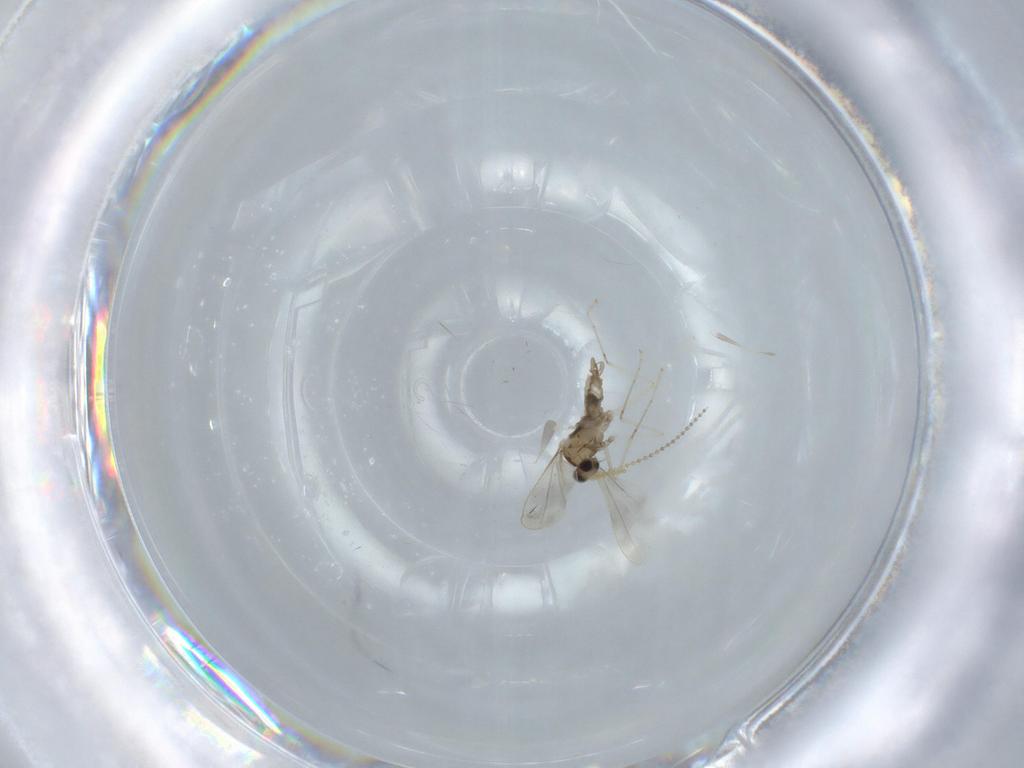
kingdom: Animalia
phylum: Arthropoda
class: Insecta
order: Diptera
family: Cecidomyiidae
